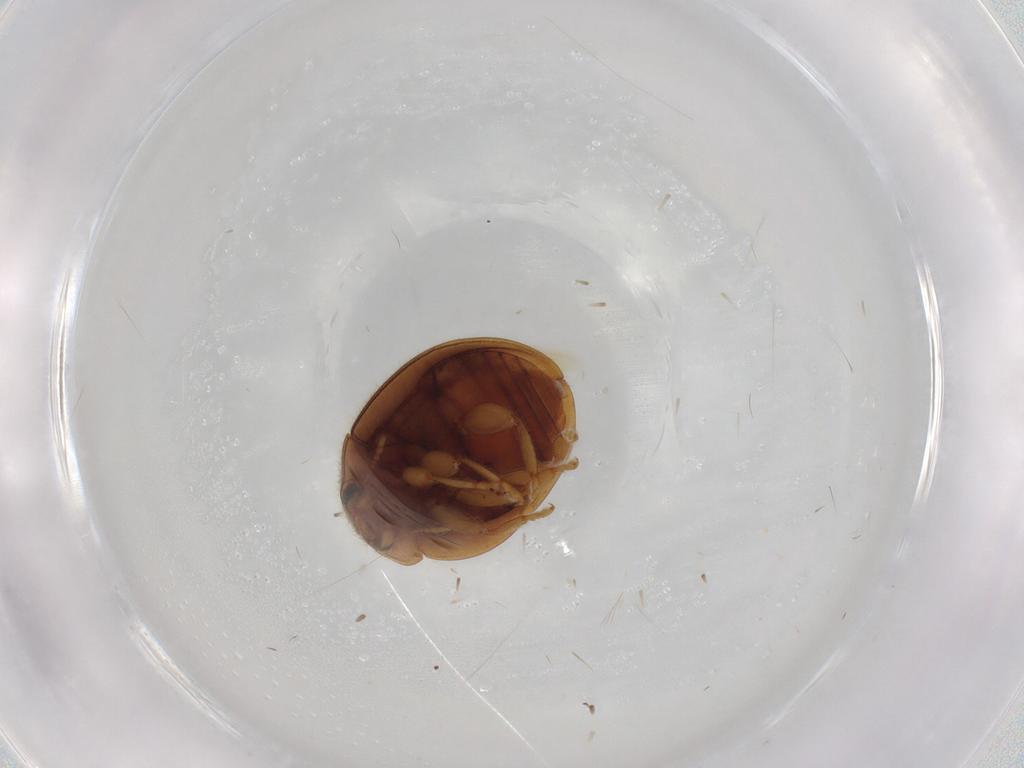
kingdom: Animalia
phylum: Arthropoda
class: Insecta
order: Coleoptera
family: Coccinellidae
